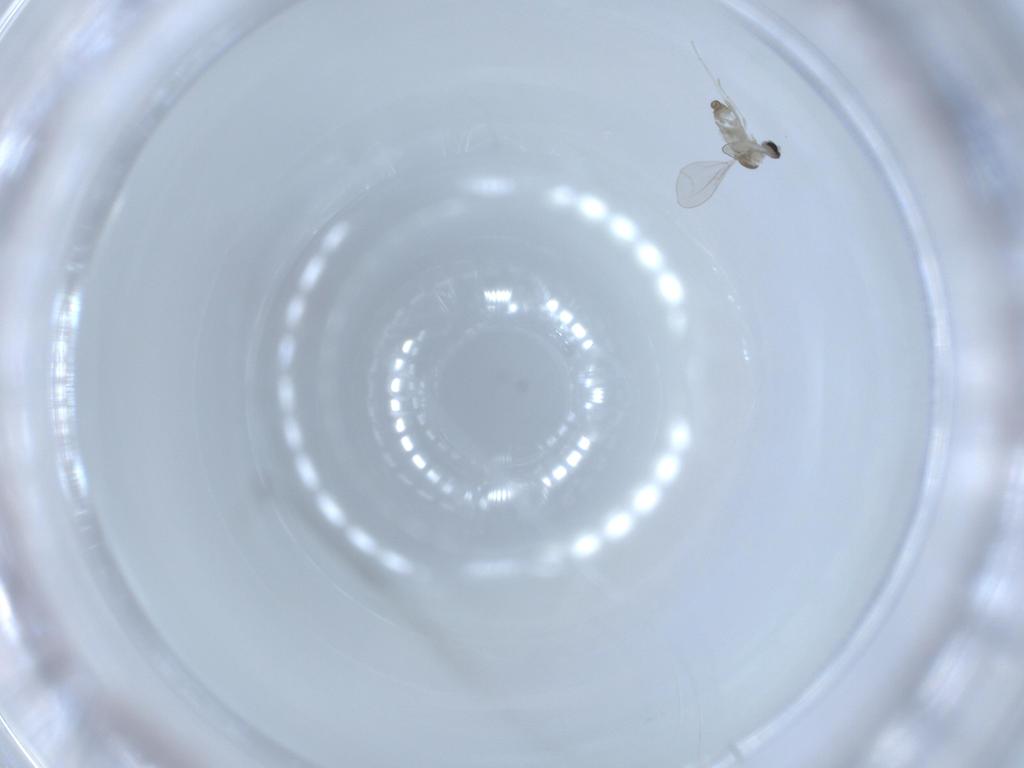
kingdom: Animalia
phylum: Arthropoda
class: Insecta
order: Diptera
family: Cecidomyiidae
